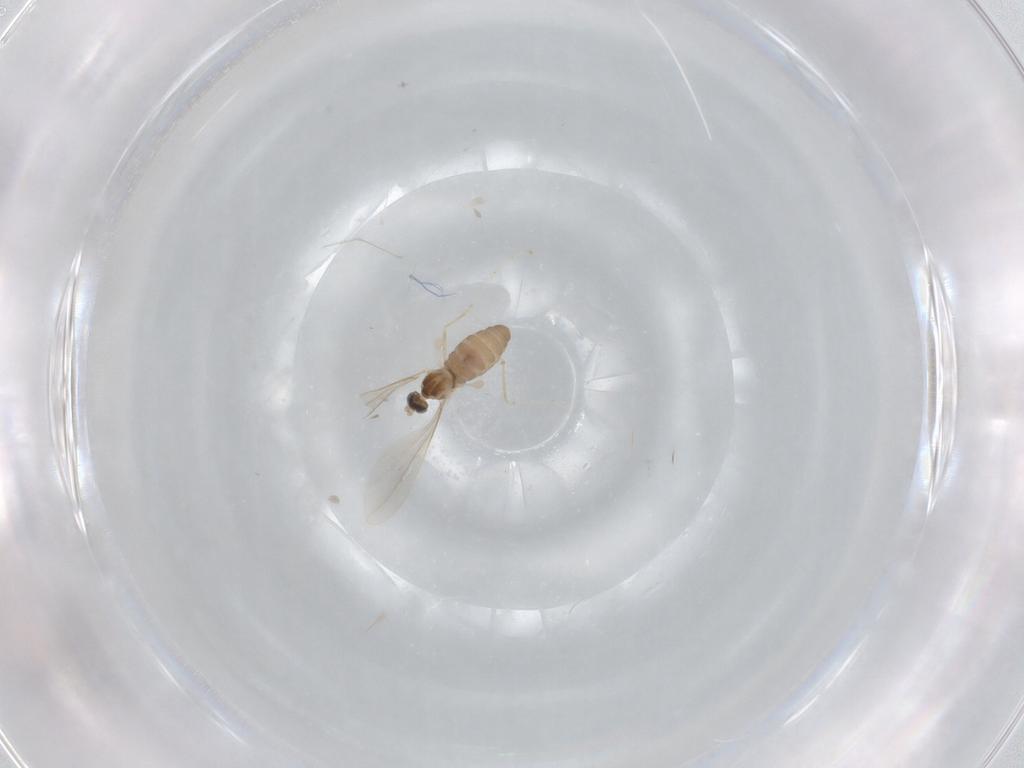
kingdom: Animalia
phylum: Arthropoda
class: Insecta
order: Diptera
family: Cecidomyiidae
